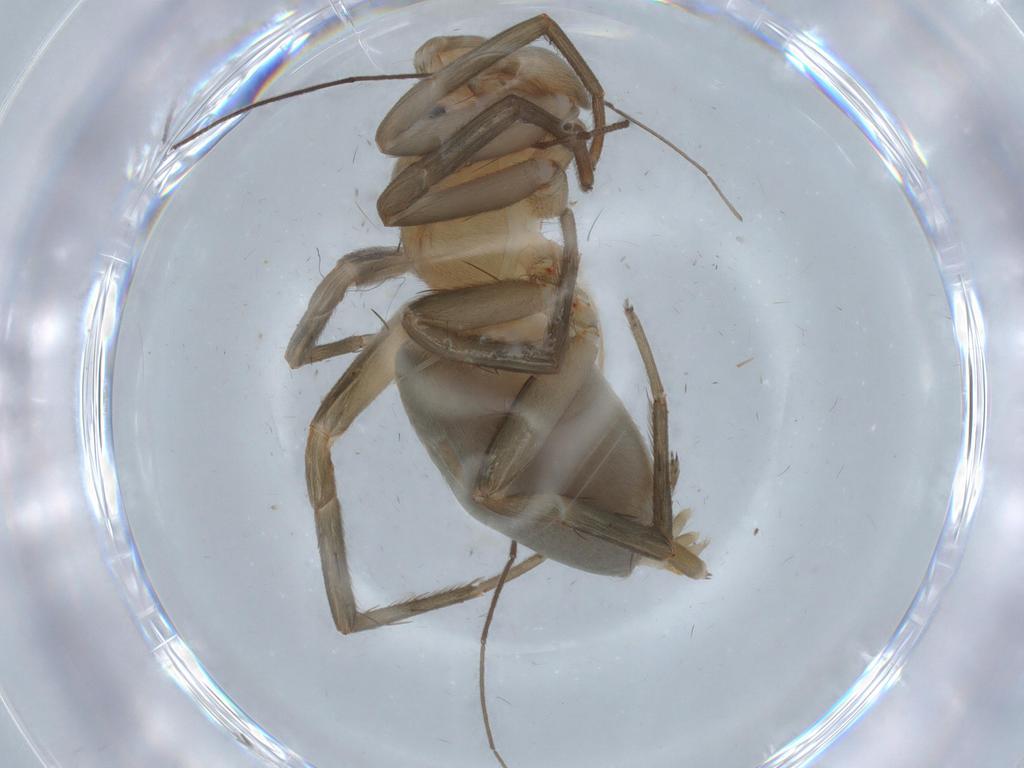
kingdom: Animalia
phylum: Arthropoda
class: Arachnida
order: Araneae
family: Gnaphosidae
